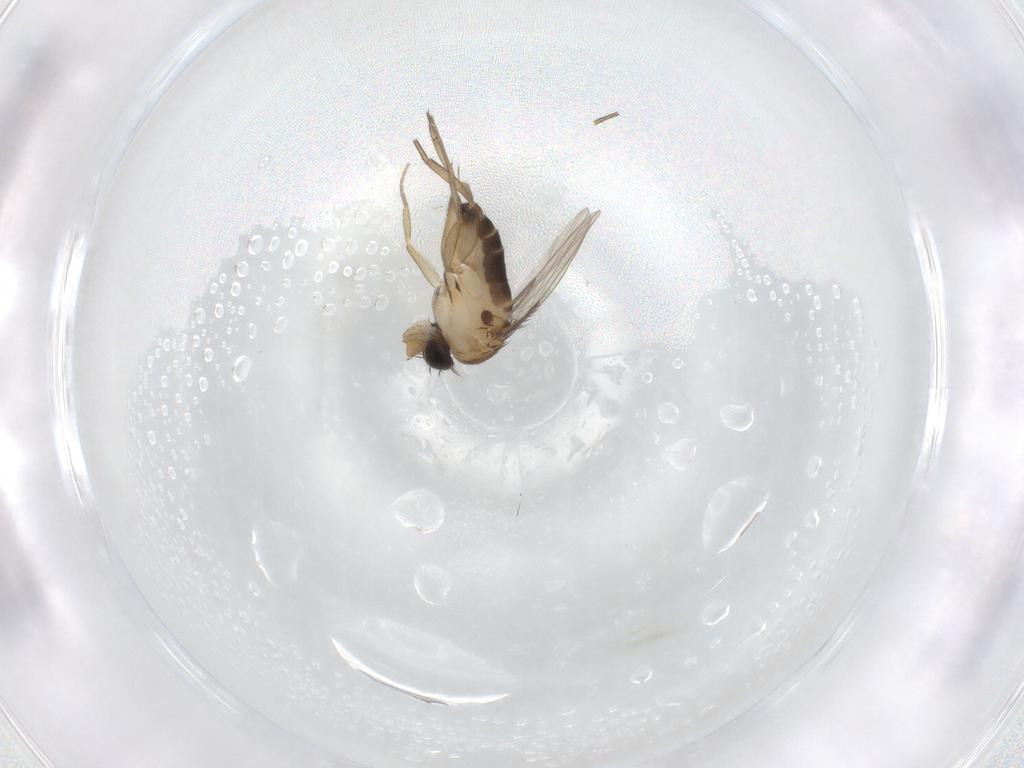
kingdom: Animalia
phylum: Arthropoda
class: Insecta
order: Diptera
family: Phoridae
